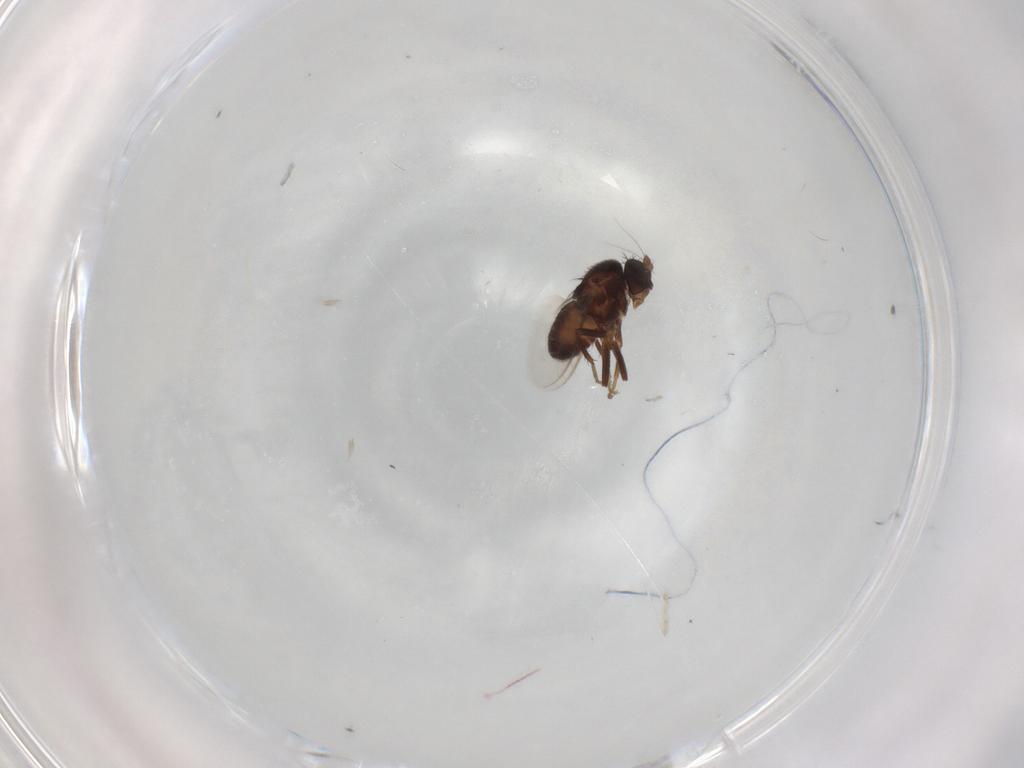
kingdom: Animalia
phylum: Arthropoda
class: Insecta
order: Diptera
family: Sphaeroceridae
